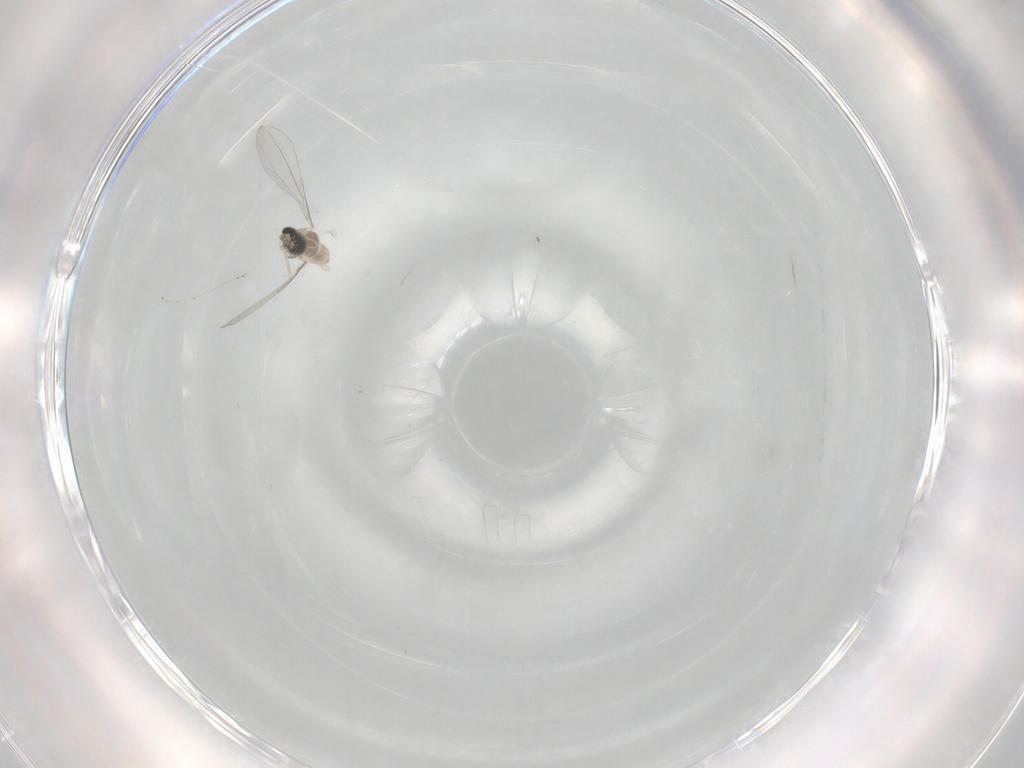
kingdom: Animalia
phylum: Arthropoda
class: Insecta
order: Diptera
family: Cecidomyiidae
